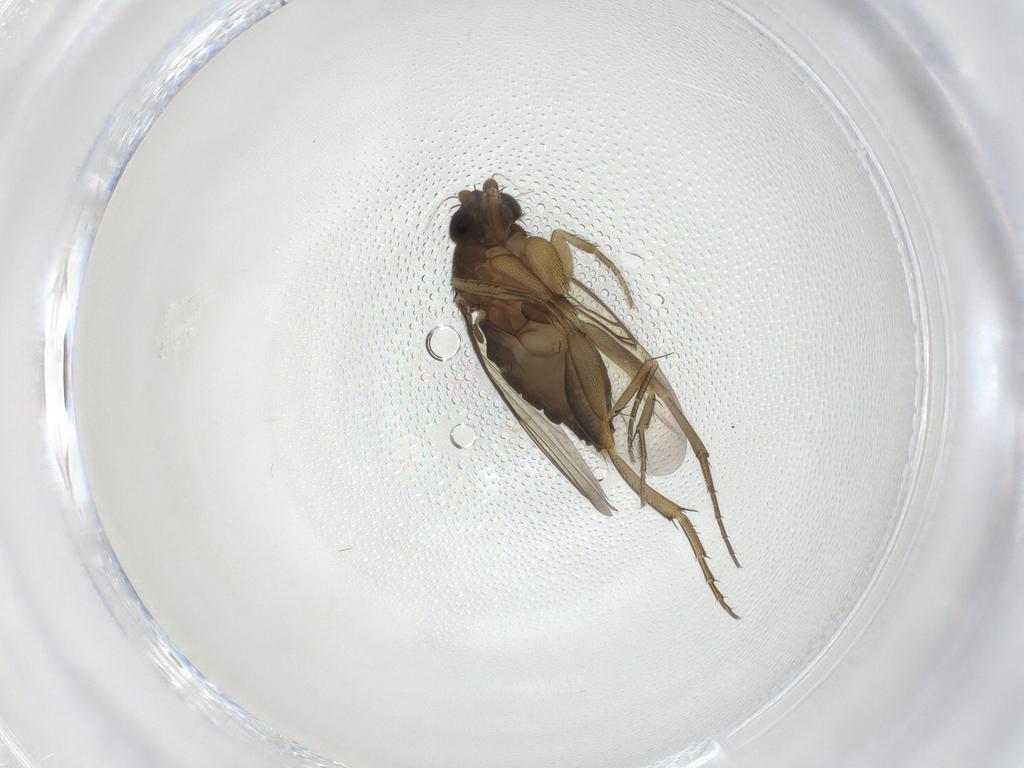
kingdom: Animalia
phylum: Arthropoda
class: Insecta
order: Diptera
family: Phoridae
